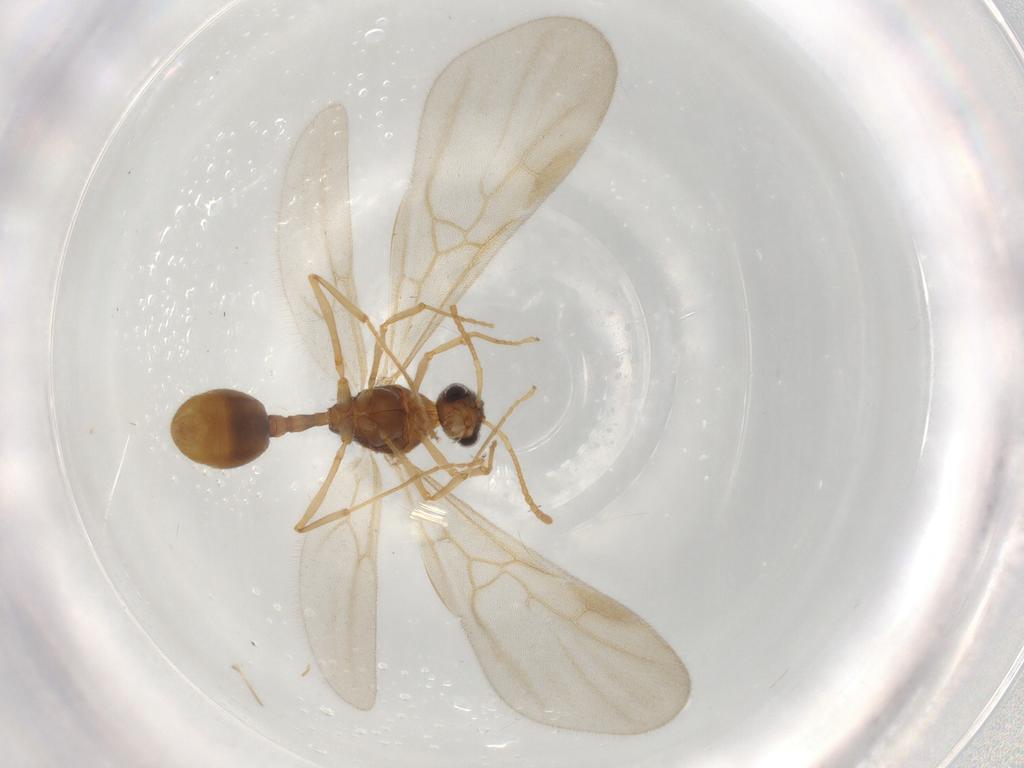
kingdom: Animalia
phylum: Arthropoda
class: Insecta
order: Hymenoptera
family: Formicidae
